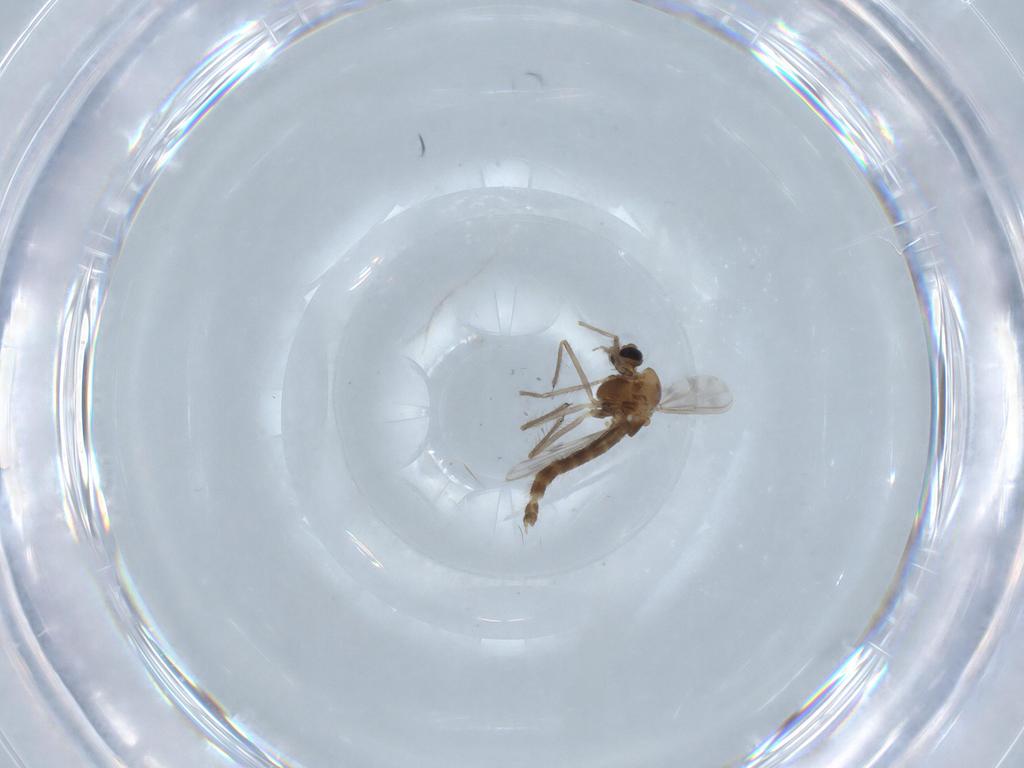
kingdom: Animalia
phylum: Arthropoda
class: Insecta
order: Diptera
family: Chironomidae
